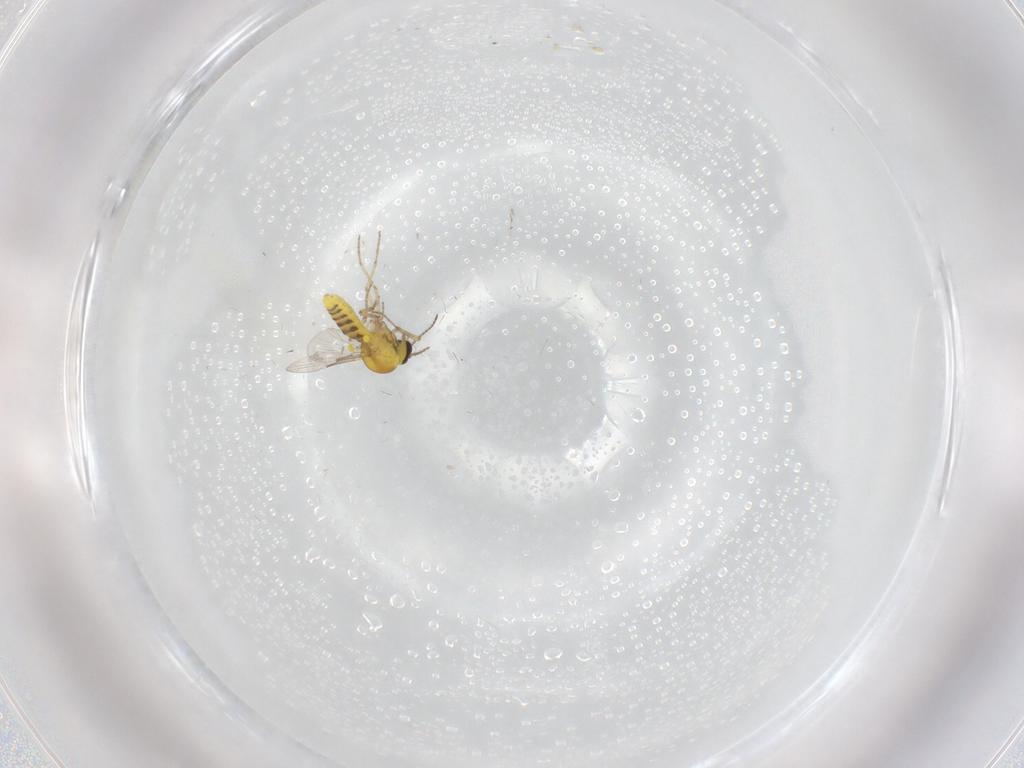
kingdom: Animalia
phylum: Arthropoda
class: Insecta
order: Diptera
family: Ceratopogonidae
